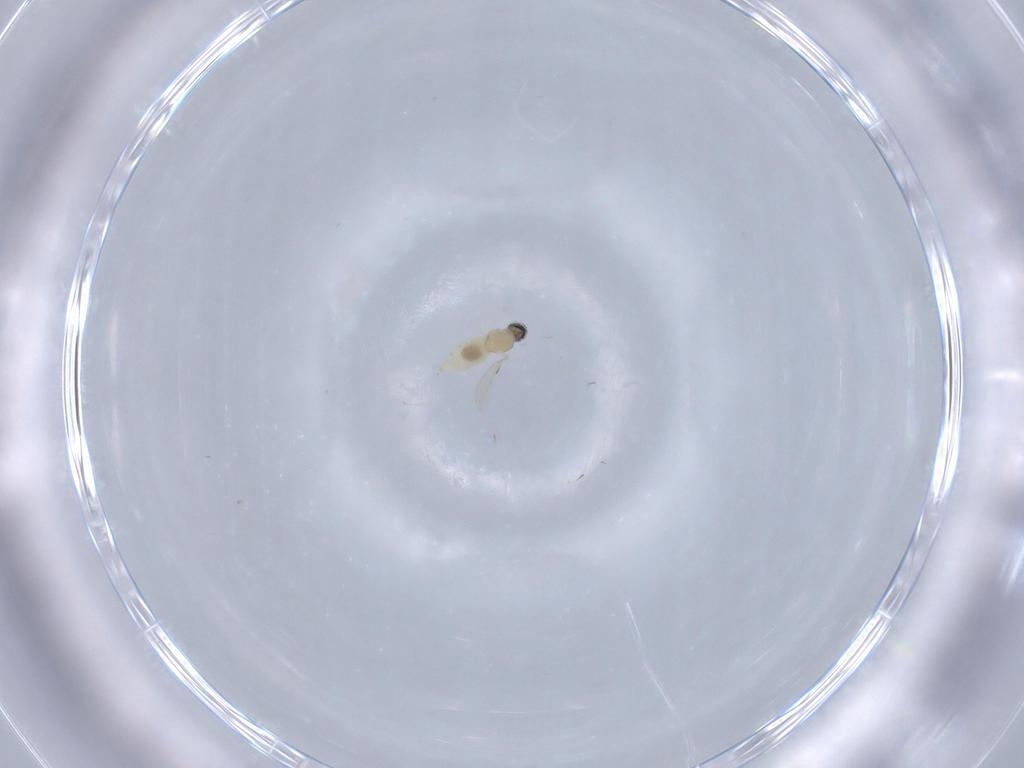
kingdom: Animalia
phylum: Arthropoda
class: Insecta
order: Diptera
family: Cecidomyiidae
